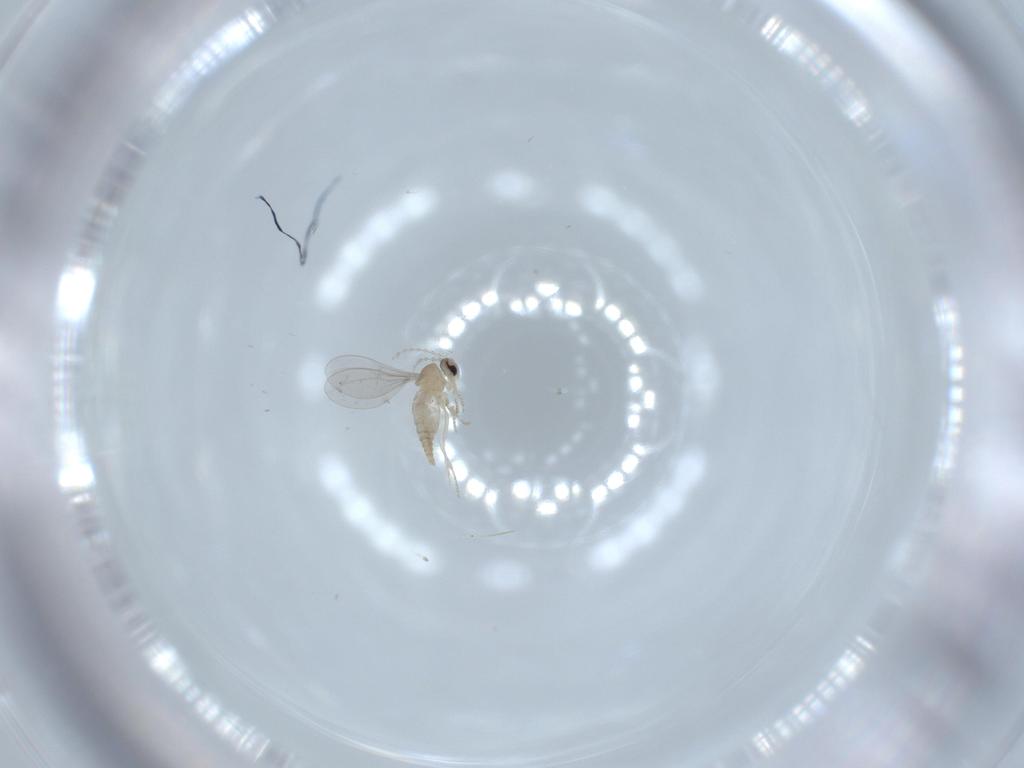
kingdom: Animalia
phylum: Arthropoda
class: Insecta
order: Diptera
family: Cecidomyiidae
